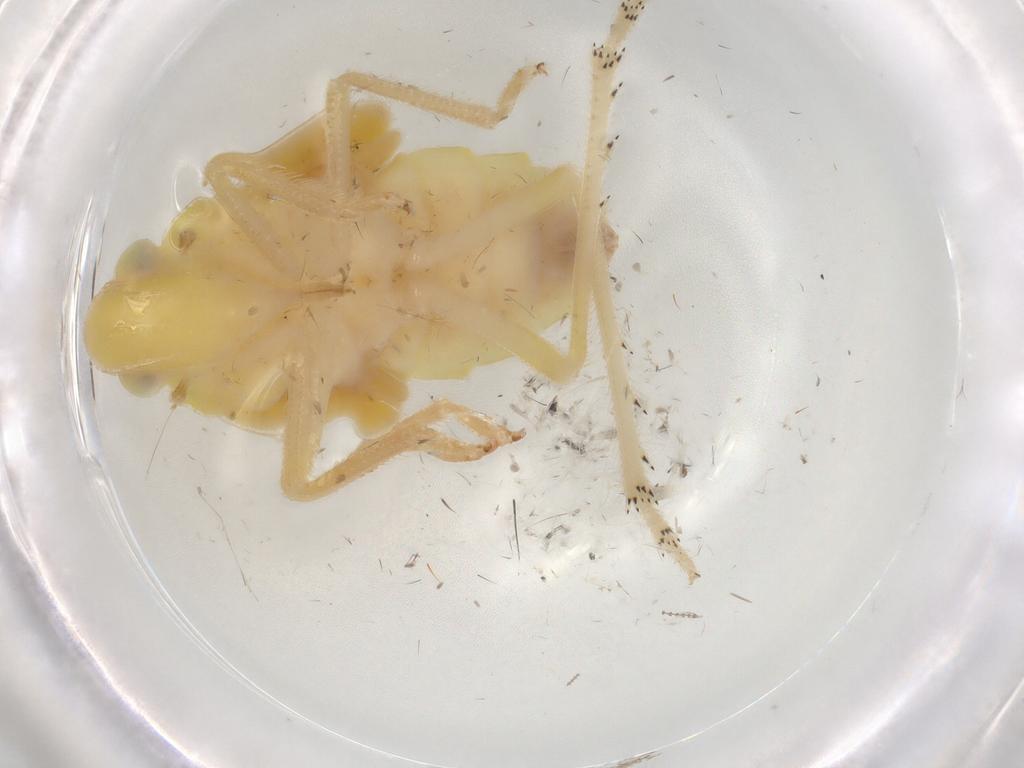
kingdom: Animalia
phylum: Arthropoda
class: Insecta
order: Hemiptera
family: Tropiduchidae
